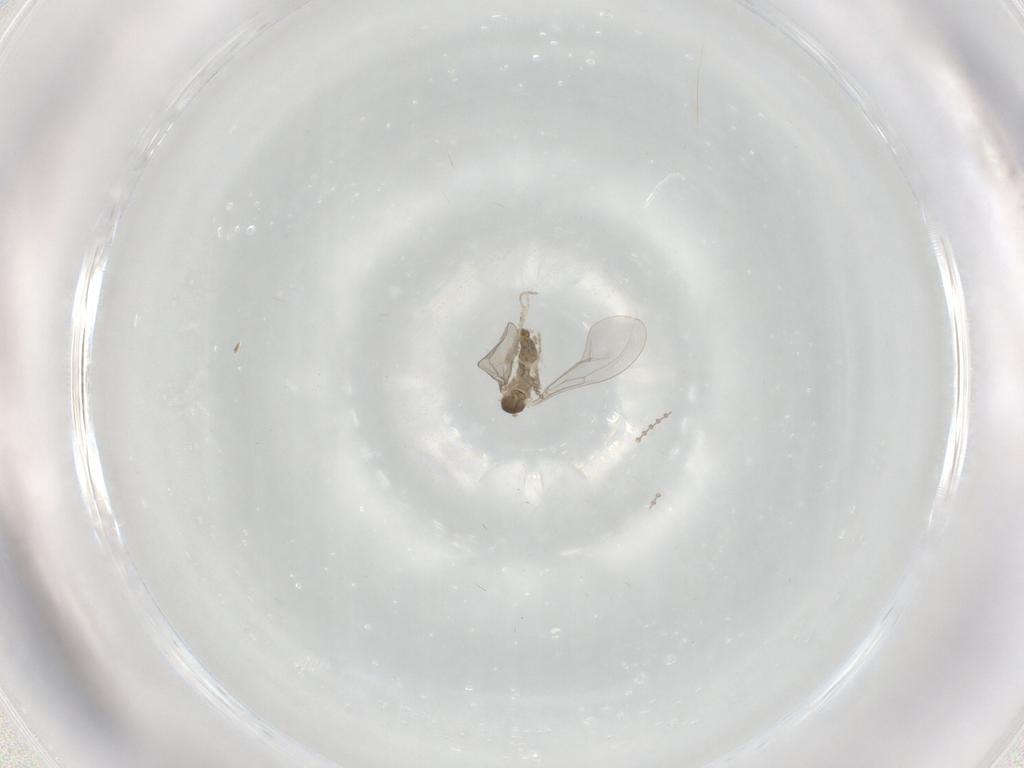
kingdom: Animalia
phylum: Arthropoda
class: Insecta
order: Diptera
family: Cecidomyiidae
